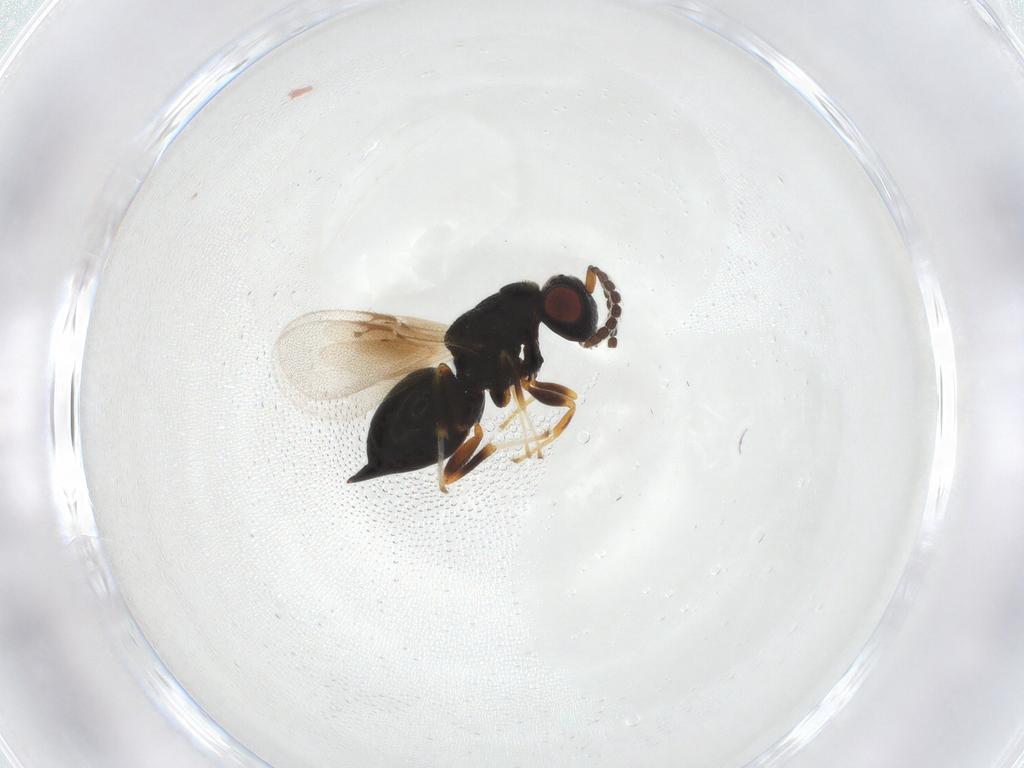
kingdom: Animalia
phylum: Arthropoda
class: Insecta
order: Hymenoptera
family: Eurytomidae
